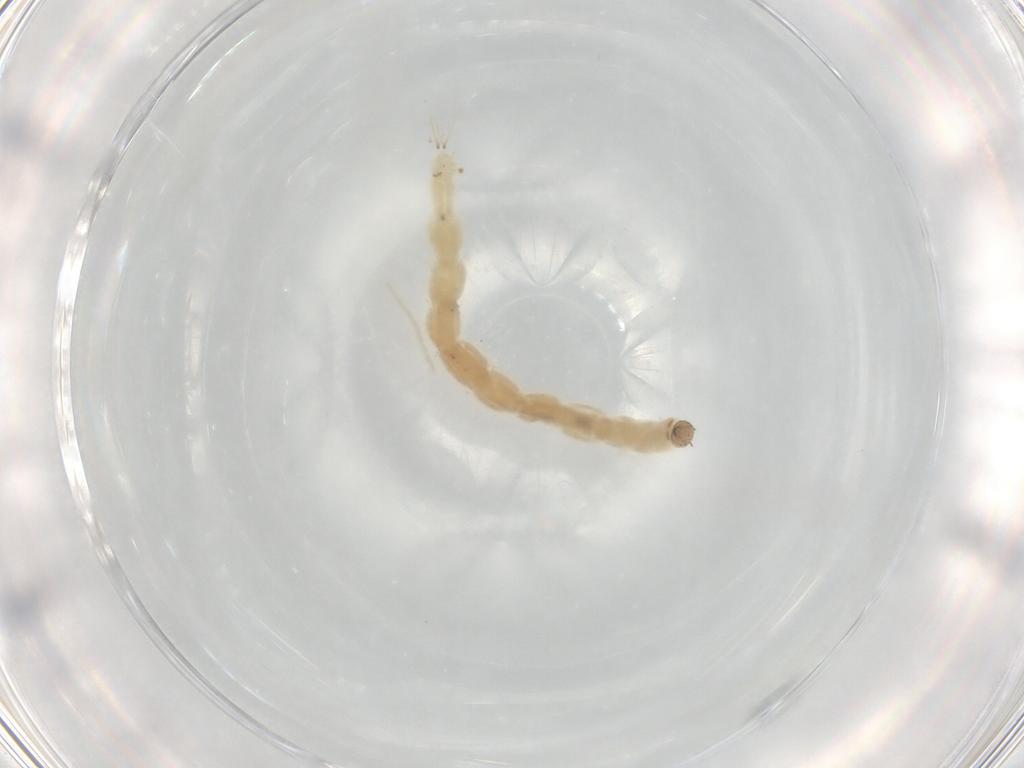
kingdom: Animalia
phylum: Arthropoda
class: Insecta
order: Diptera
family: Chironomidae
